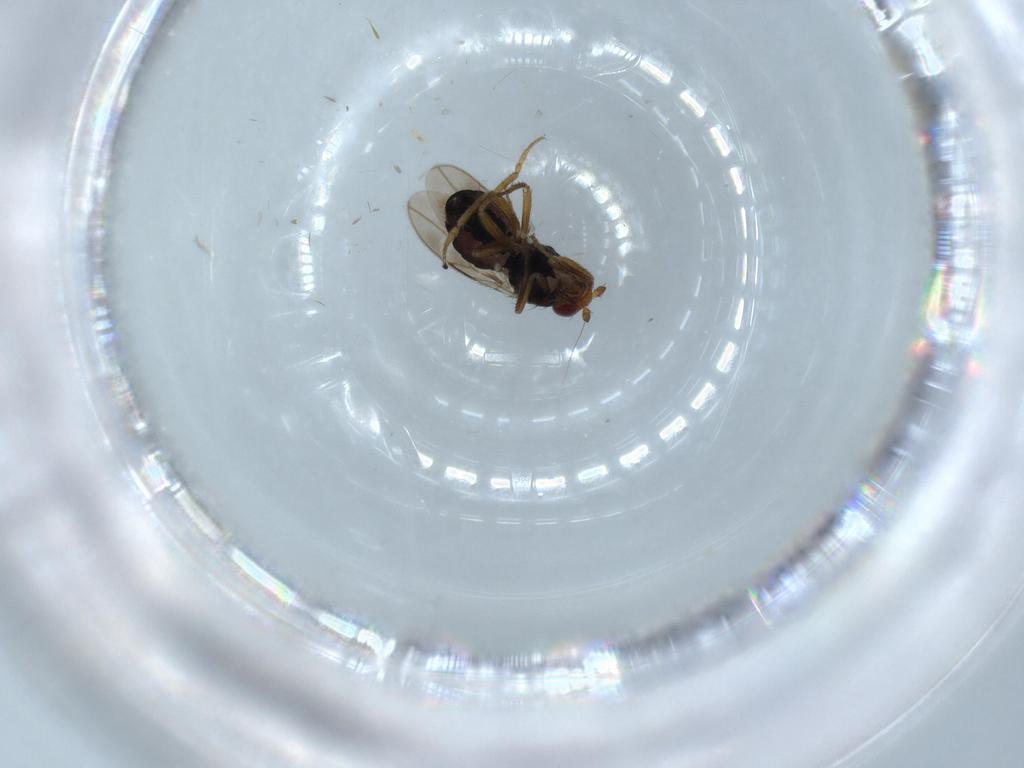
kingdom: Animalia
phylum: Arthropoda
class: Insecta
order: Diptera
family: Sphaeroceridae
